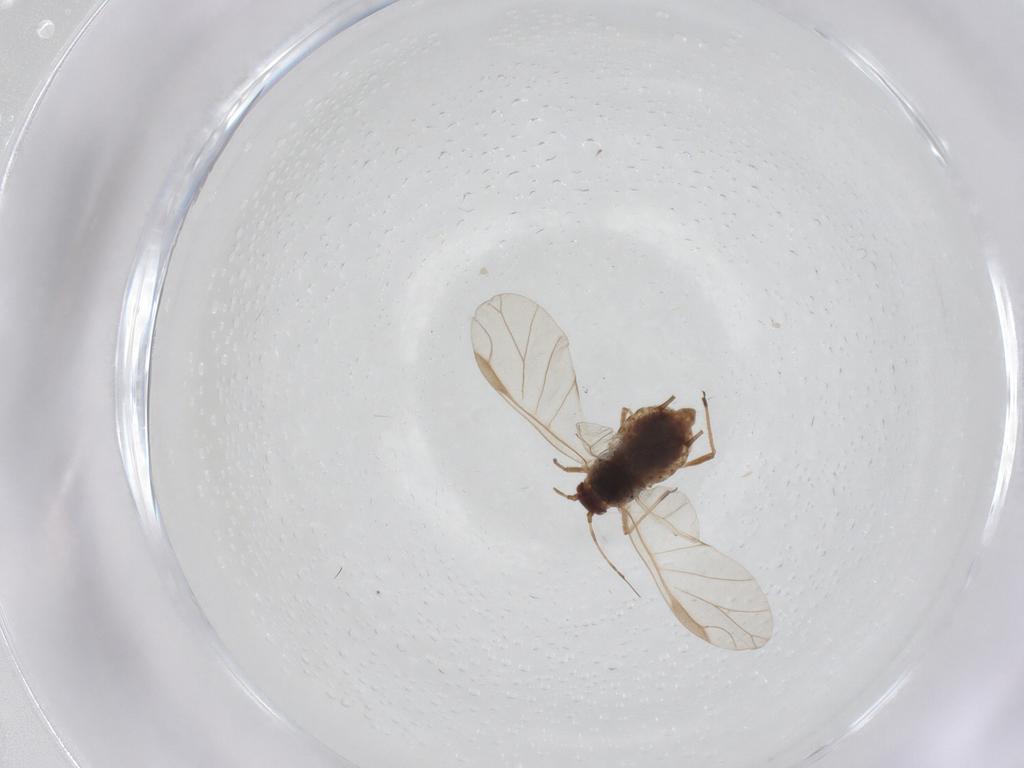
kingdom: Animalia
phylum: Arthropoda
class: Insecta
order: Hemiptera
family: Aphididae
